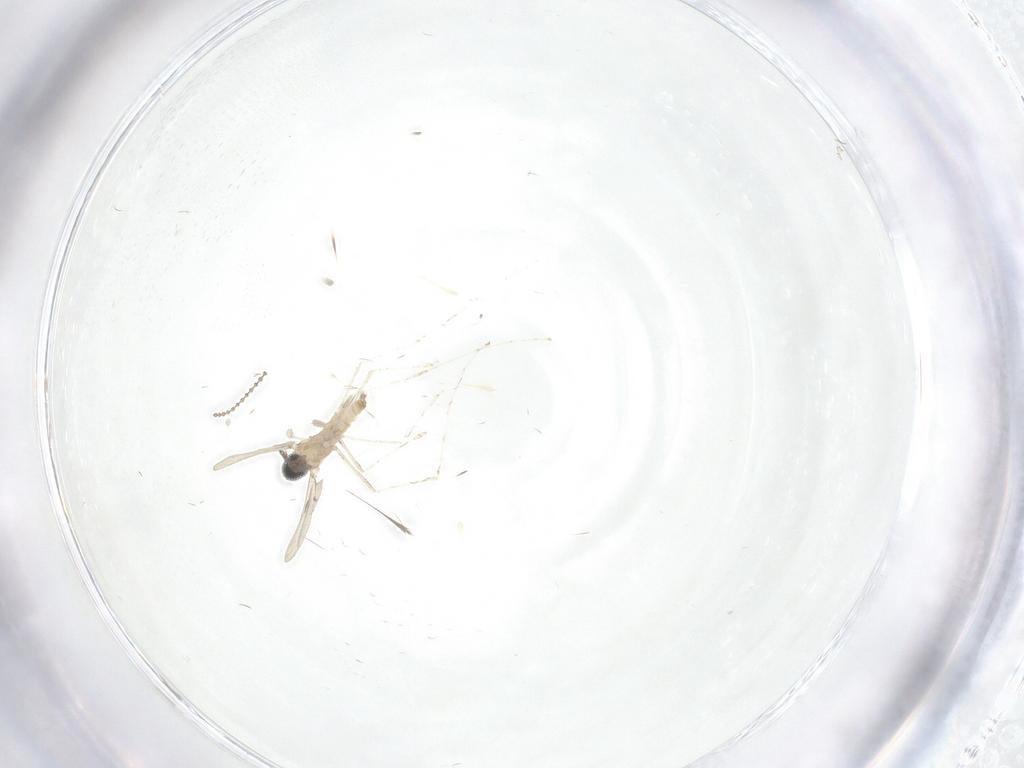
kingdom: Animalia
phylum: Arthropoda
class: Insecta
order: Diptera
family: Cecidomyiidae
